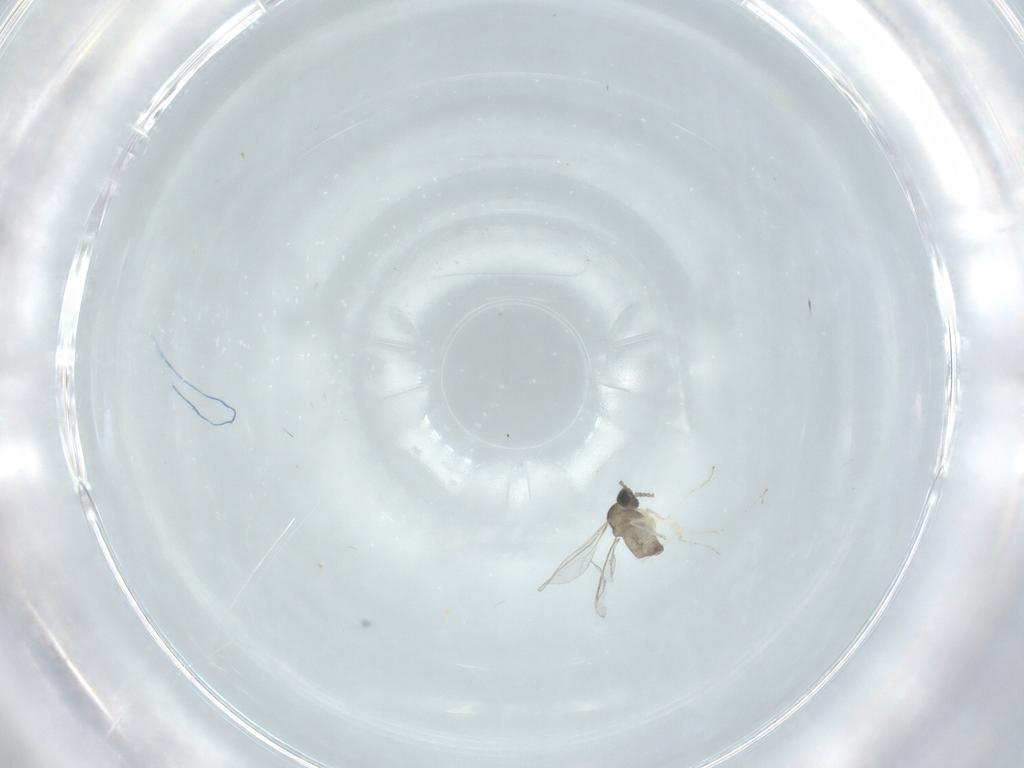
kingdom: Animalia
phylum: Arthropoda
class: Insecta
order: Diptera
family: Cecidomyiidae
